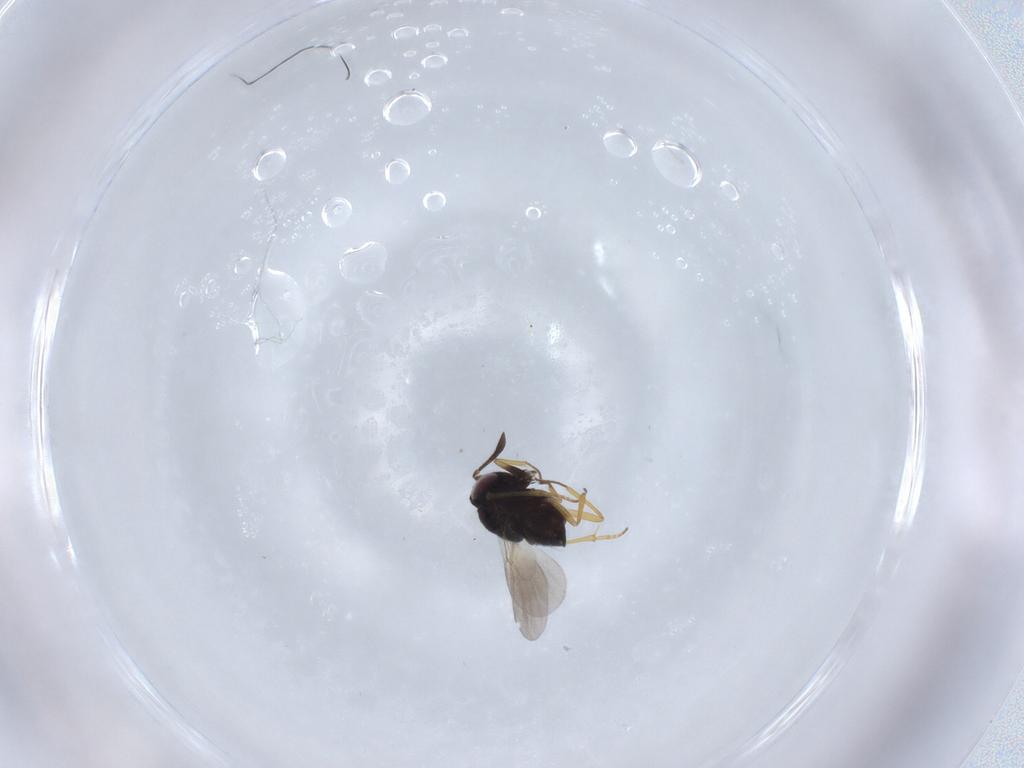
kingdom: Animalia
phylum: Arthropoda
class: Insecta
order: Hymenoptera
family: Encyrtidae
